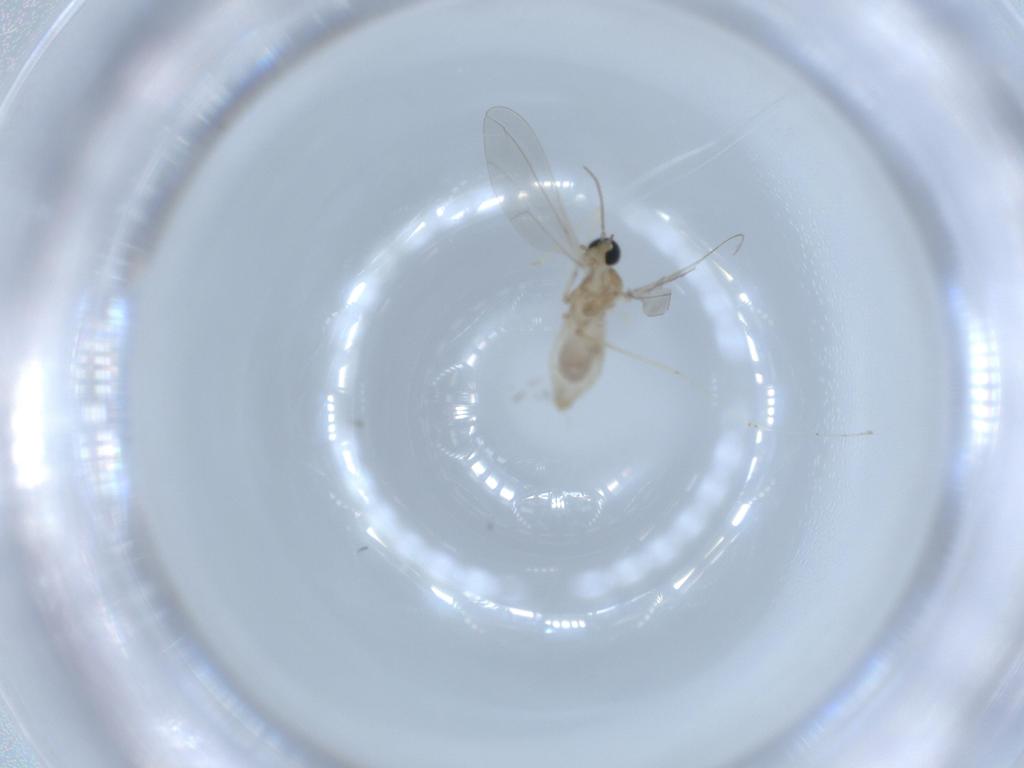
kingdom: Animalia
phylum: Arthropoda
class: Insecta
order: Diptera
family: Cecidomyiidae
